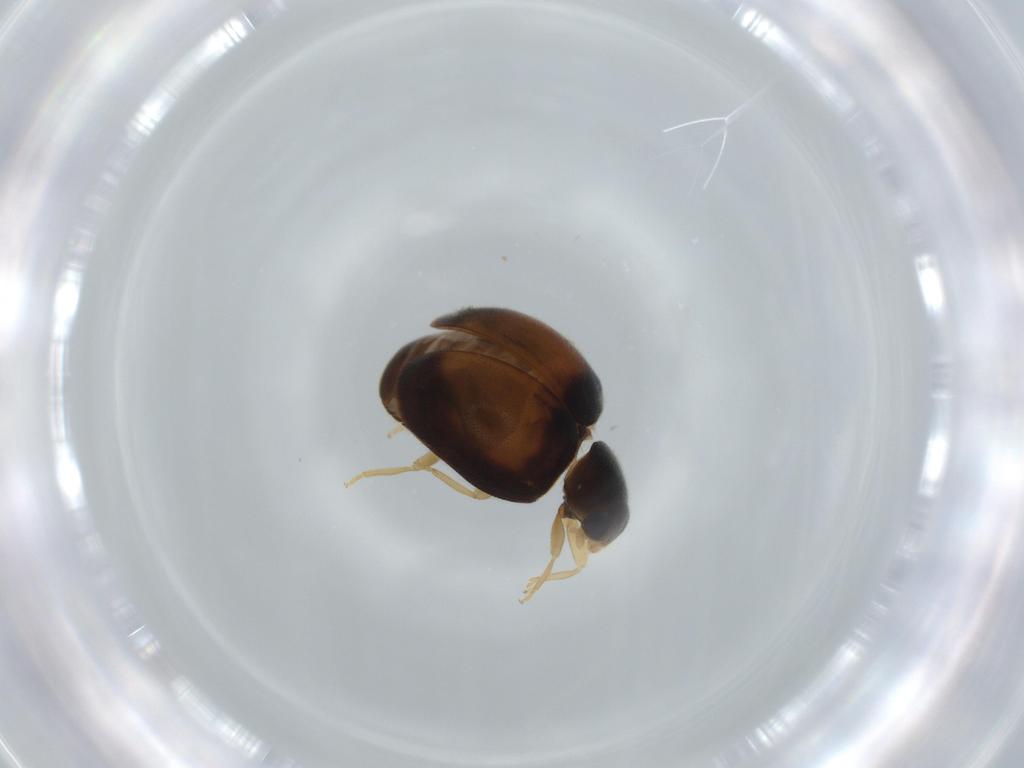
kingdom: Animalia
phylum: Arthropoda
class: Insecta
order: Coleoptera
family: Coccinellidae
